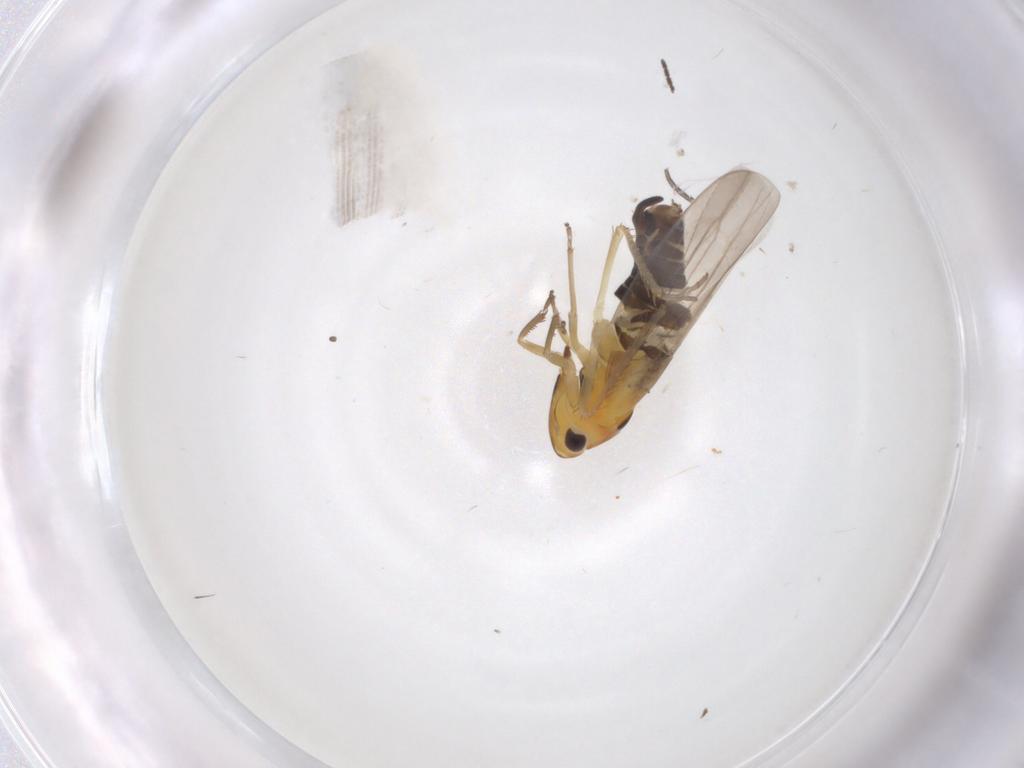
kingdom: Animalia
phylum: Arthropoda
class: Insecta
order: Hemiptera
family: Cicadellidae
